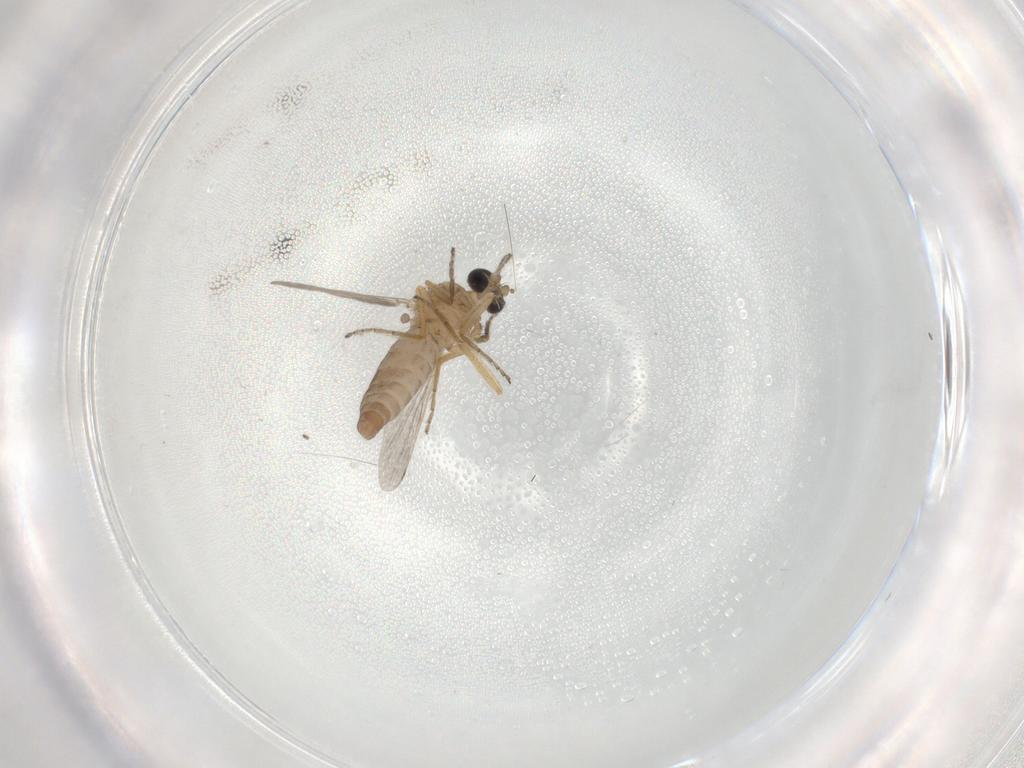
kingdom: Animalia
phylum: Arthropoda
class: Insecta
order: Diptera
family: Ceratopogonidae
